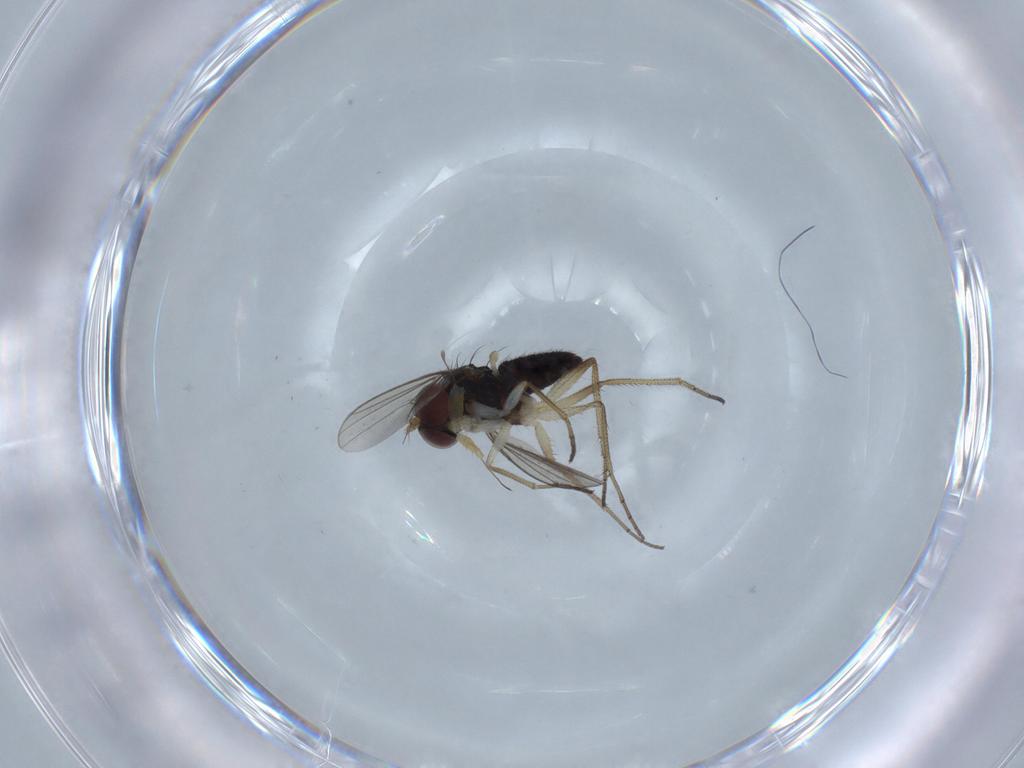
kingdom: Animalia
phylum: Arthropoda
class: Insecta
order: Diptera
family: Dolichopodidae
